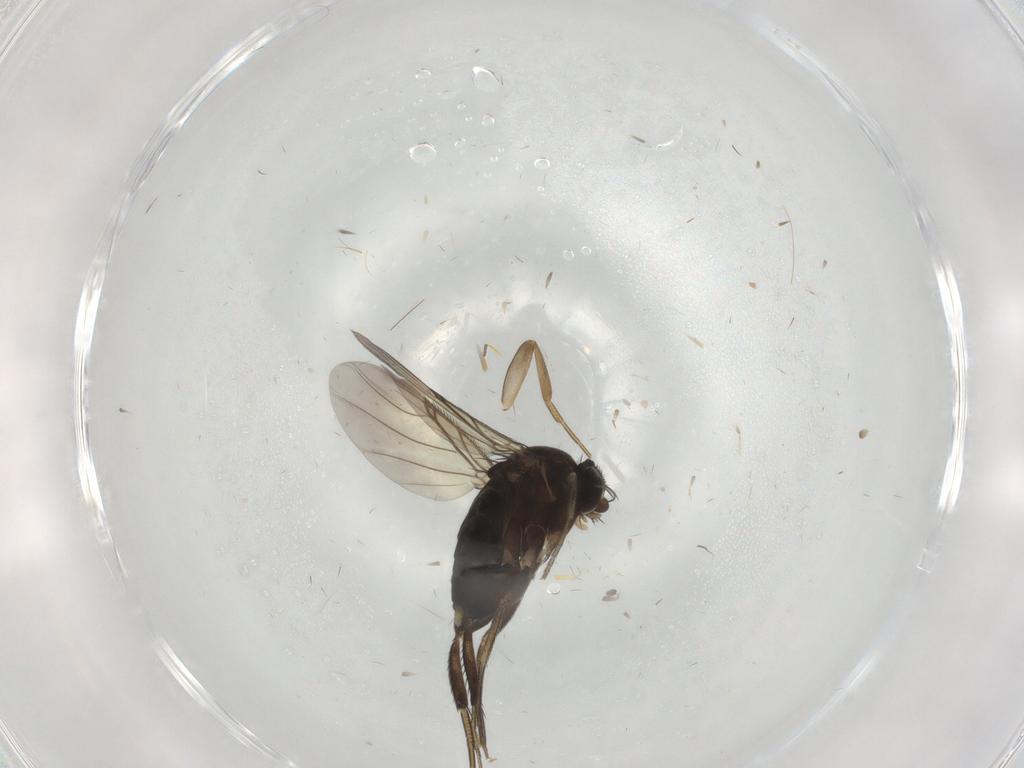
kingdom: Animalia
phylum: Arthropoda
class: Insecta
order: Diptera
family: Phoridae
